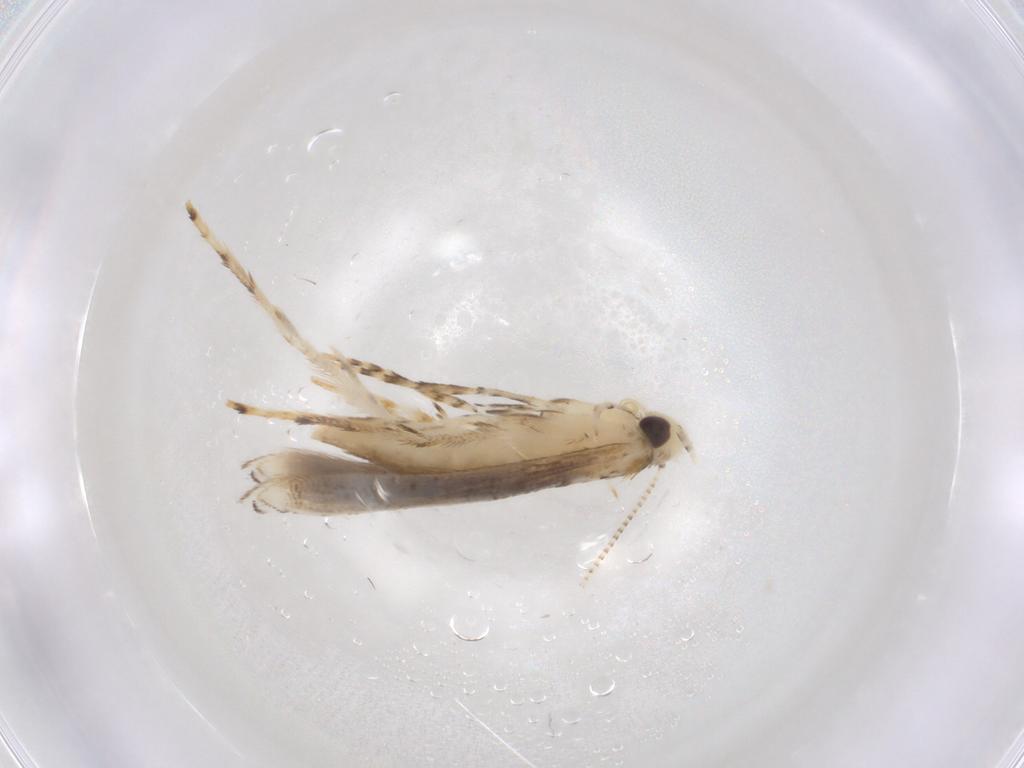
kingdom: Animalia
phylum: Arthropoda
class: Insecta
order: Lepidoptera
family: Gracillariidae
